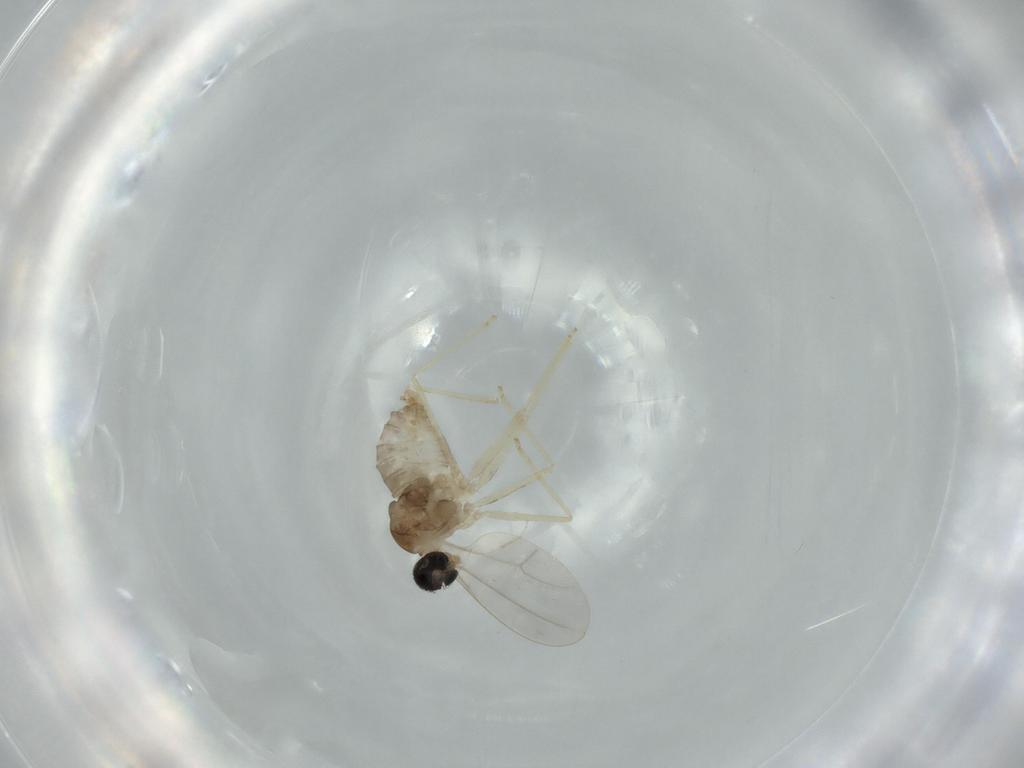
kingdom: Animalia
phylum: Arthropoda
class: Insecta
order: Diptera
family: Cecidomyiidae
